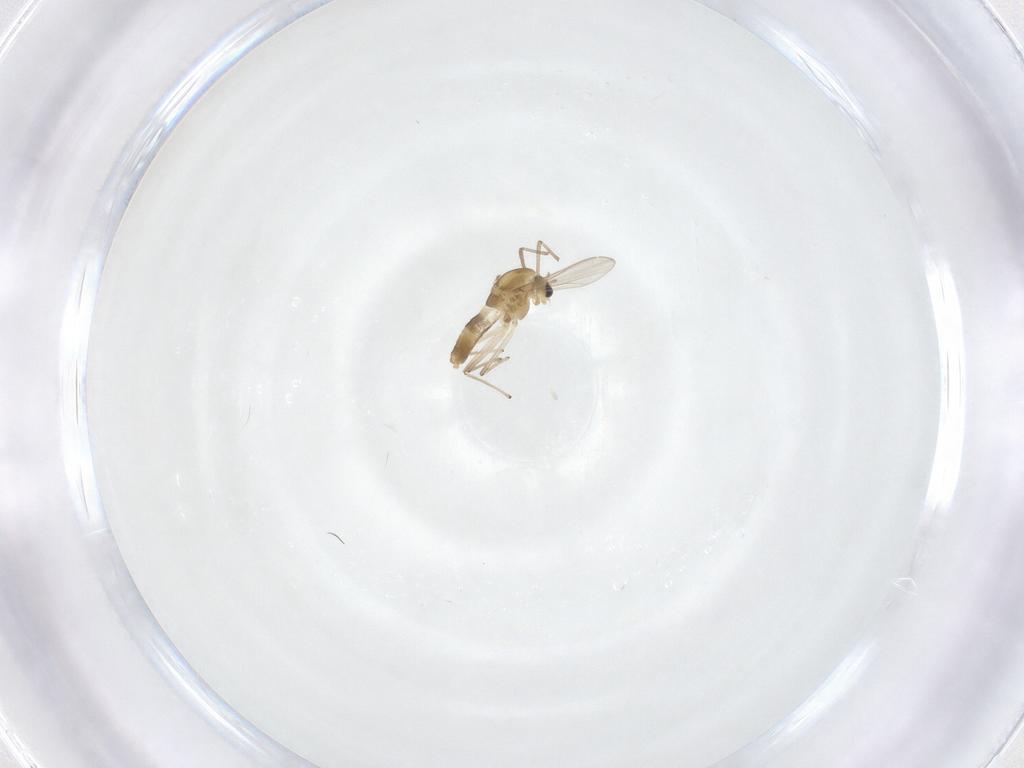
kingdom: Animalia
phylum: Arthropoda
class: Insecta
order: Diptera
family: Chironomidae
